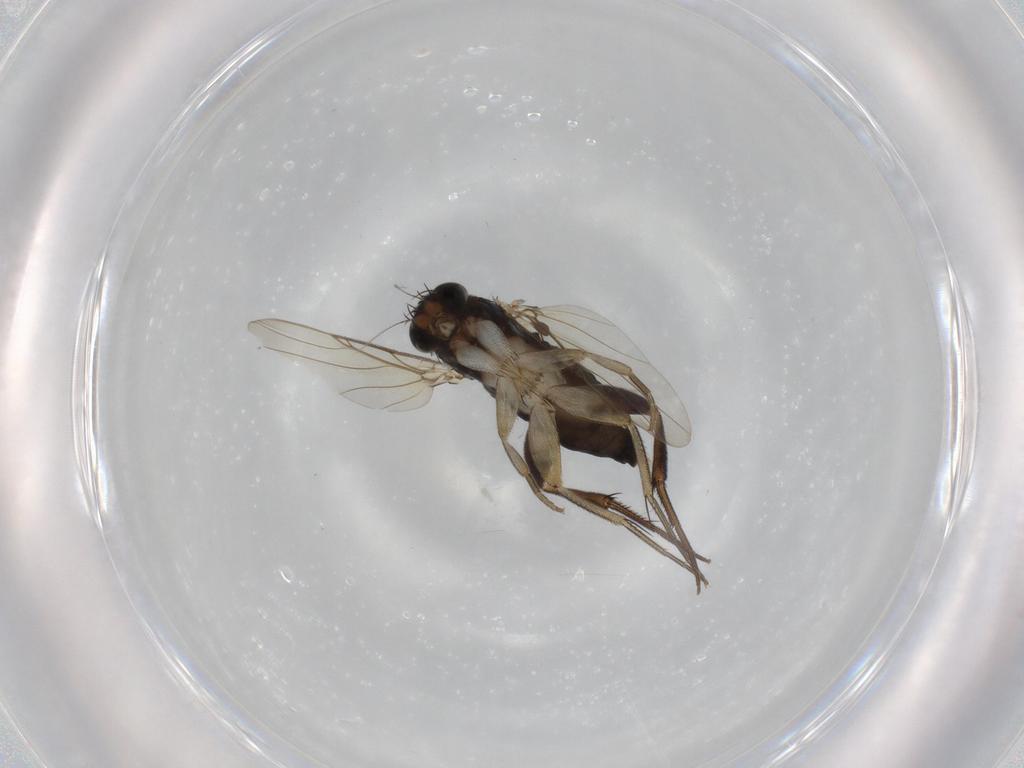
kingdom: Animalia
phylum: Arthropoda
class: Insecta
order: Diptera
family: Phoridae
